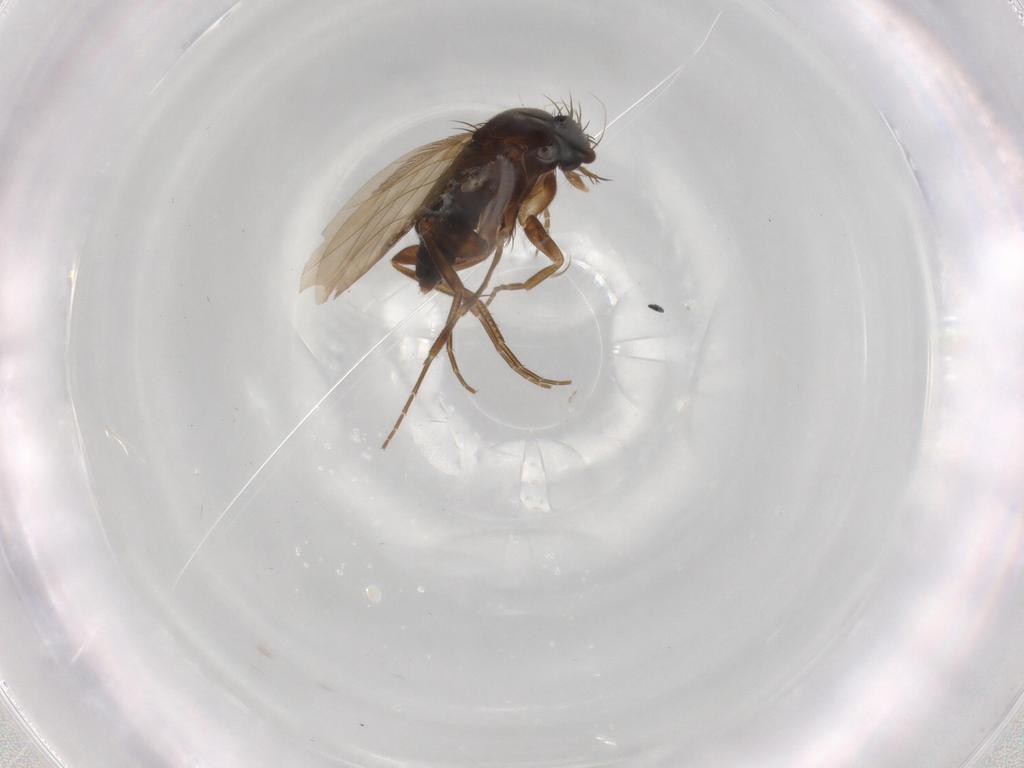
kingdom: Animalia
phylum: Arthropoda
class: Insecta
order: Diptera
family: Phoridae
